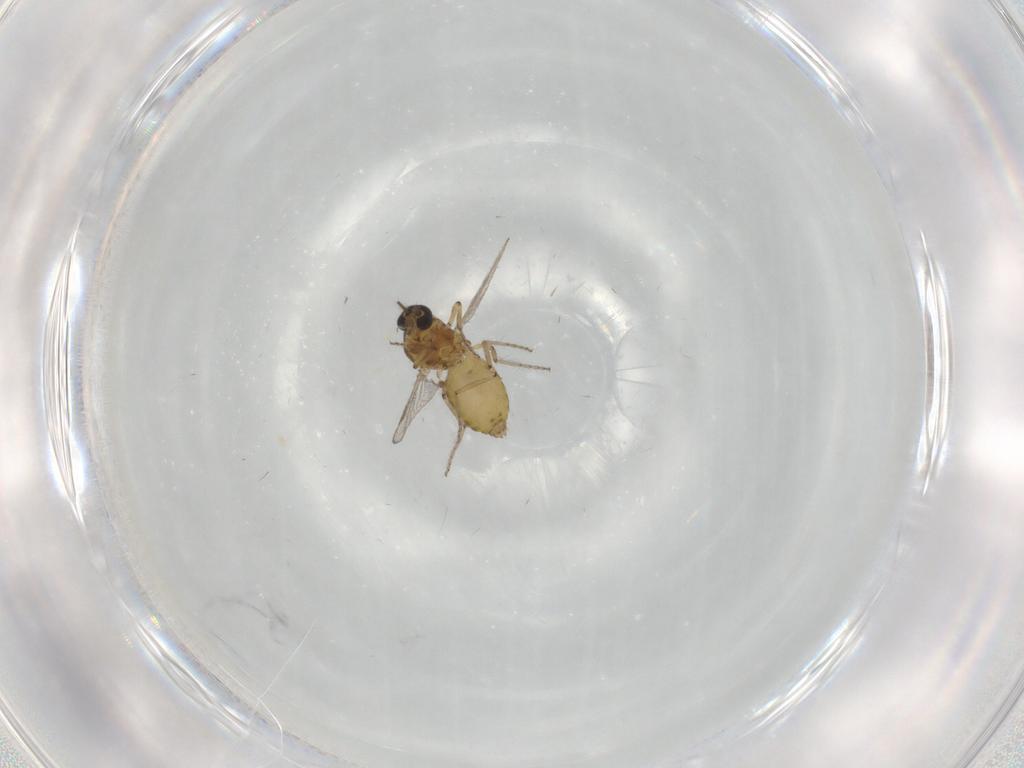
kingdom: Animalia
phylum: Arthropoda
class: Insecta
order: Diptera
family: Ceratopogonidae
